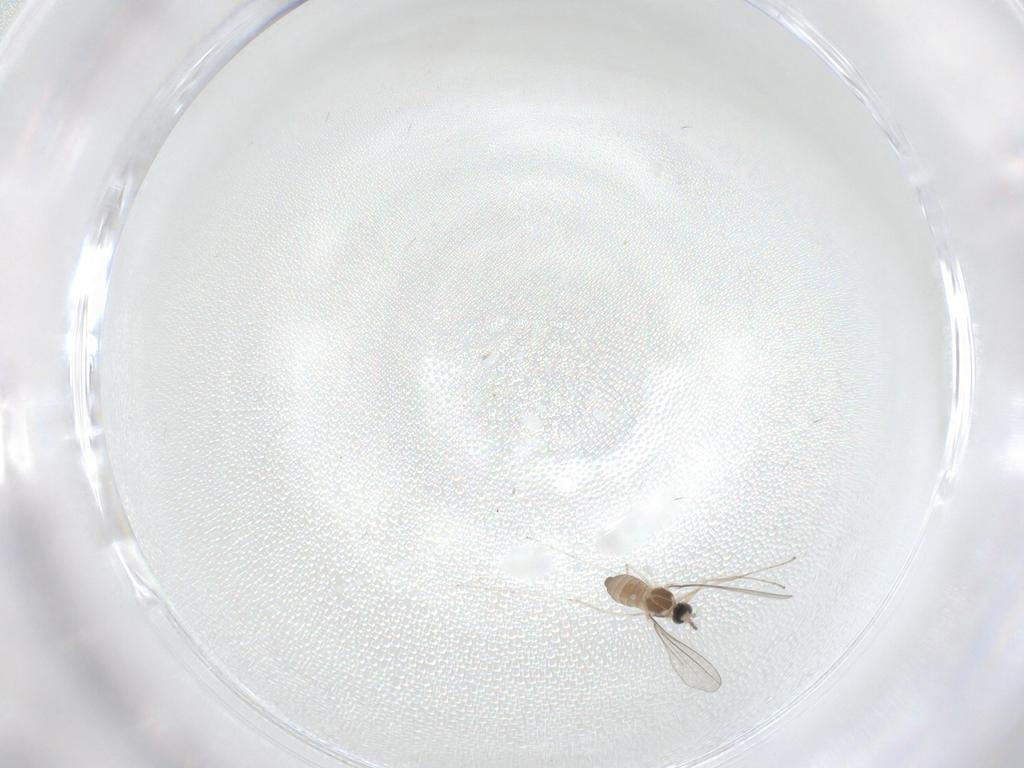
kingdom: Animalia
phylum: Arthropoda
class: Insecta
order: Diptera
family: Cecidomyiidae
